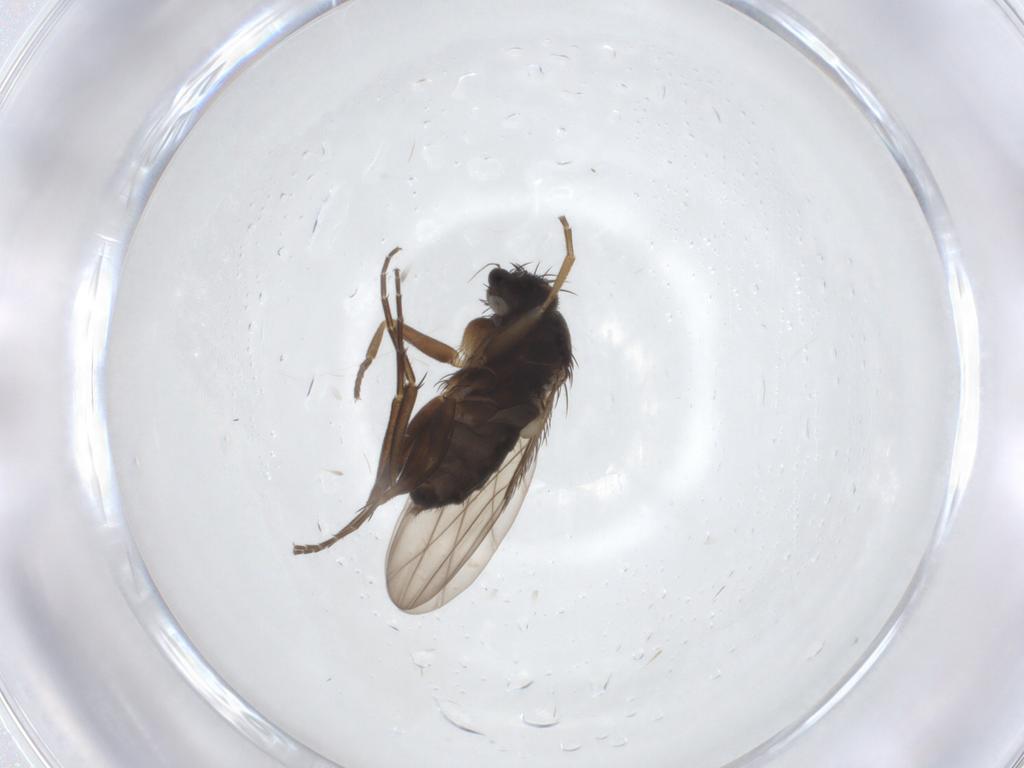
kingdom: Animalia
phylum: Arthropoda
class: Insecta
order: Diptera
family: Phoridae
